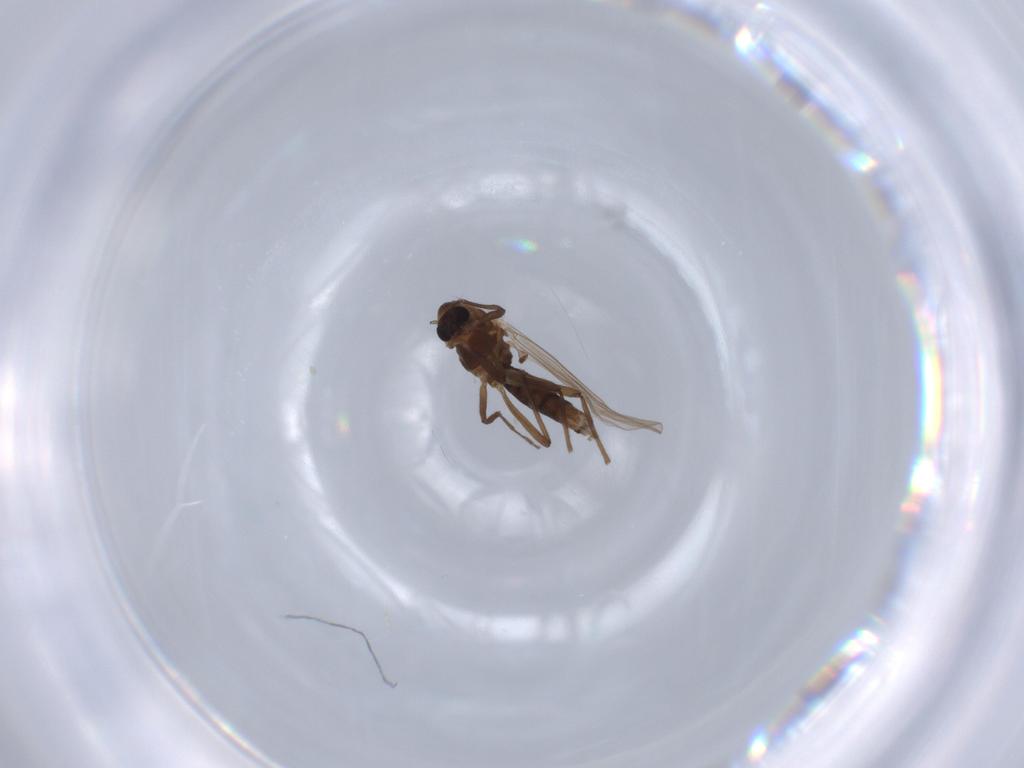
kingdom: Animalia
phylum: Arthropoda
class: Insecta
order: Diptera
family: Chironomidae
